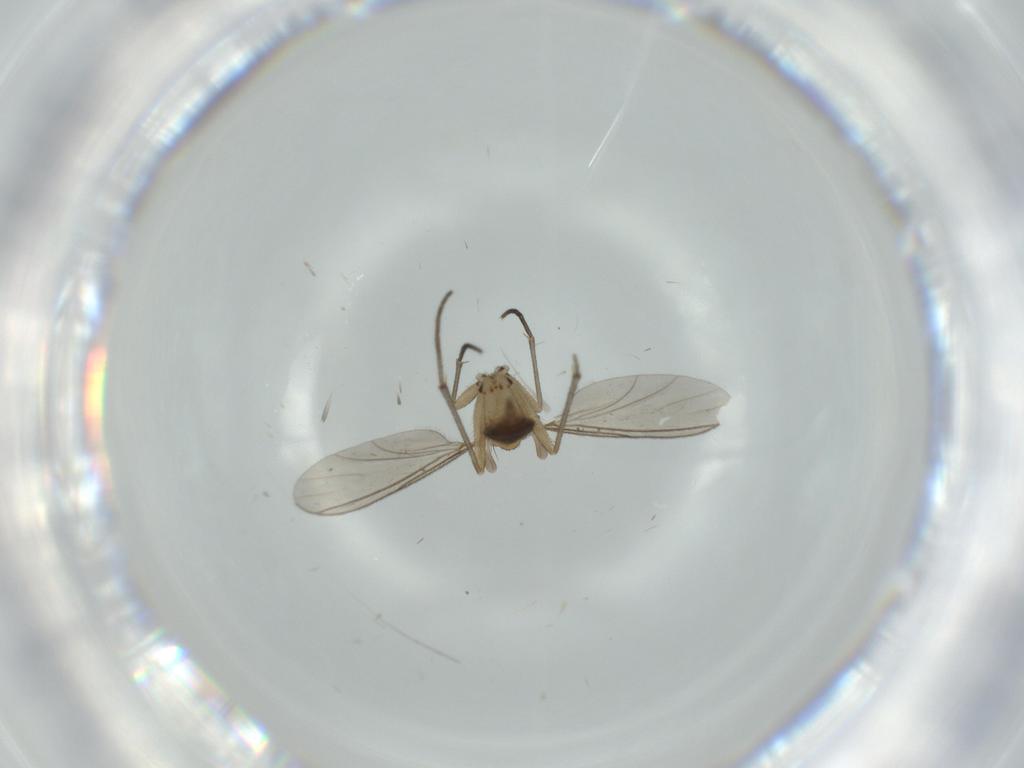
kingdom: Animalia
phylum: Arthropoda
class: Insecta
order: Diptera
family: Sciaridae
